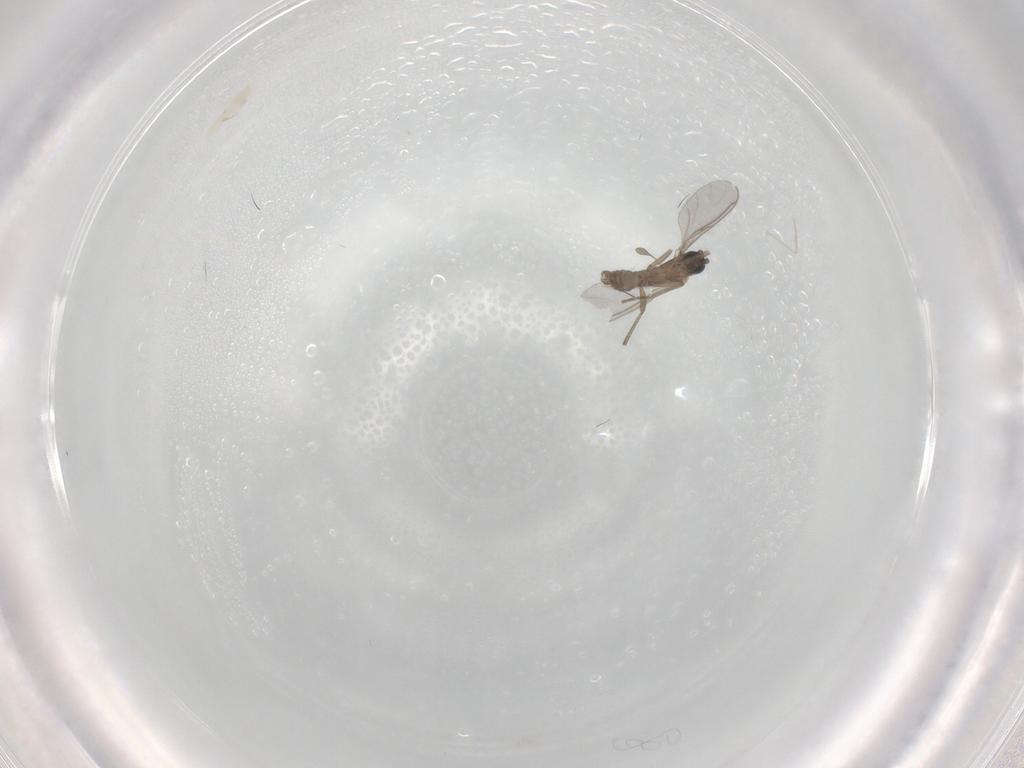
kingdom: Animalia
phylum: Arthropoda
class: Insecta
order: Diptera
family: Sciaridae
